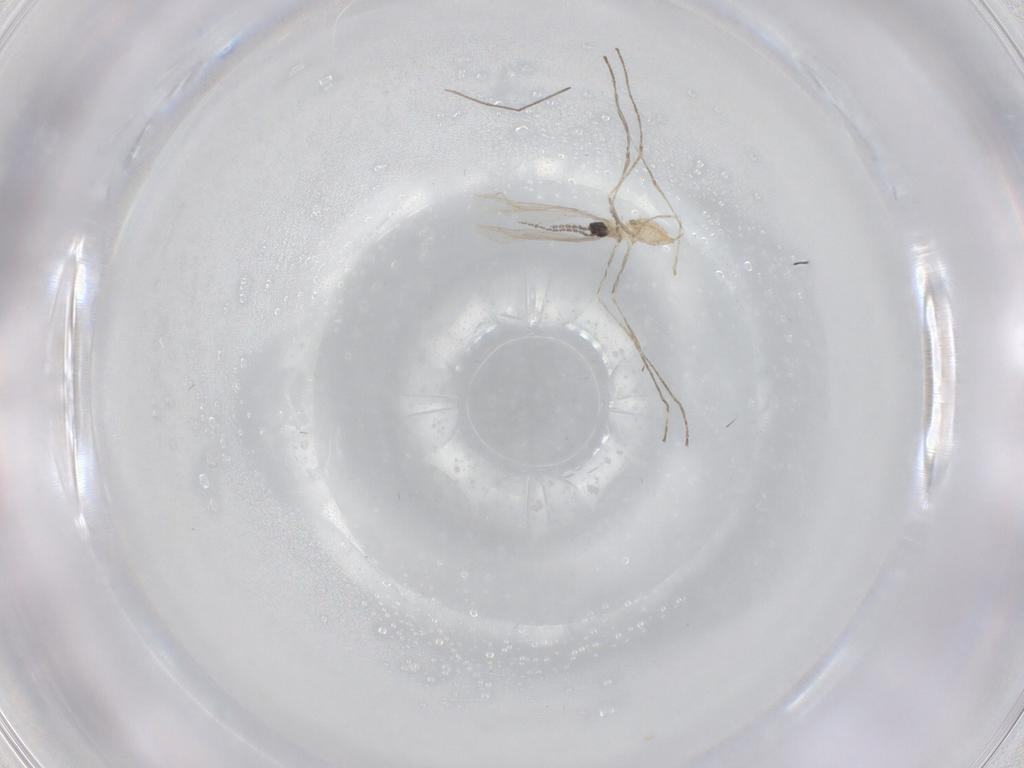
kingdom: Animalia
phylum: Arthropoda
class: Insecta
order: Diptera
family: Cecidomyiidae
